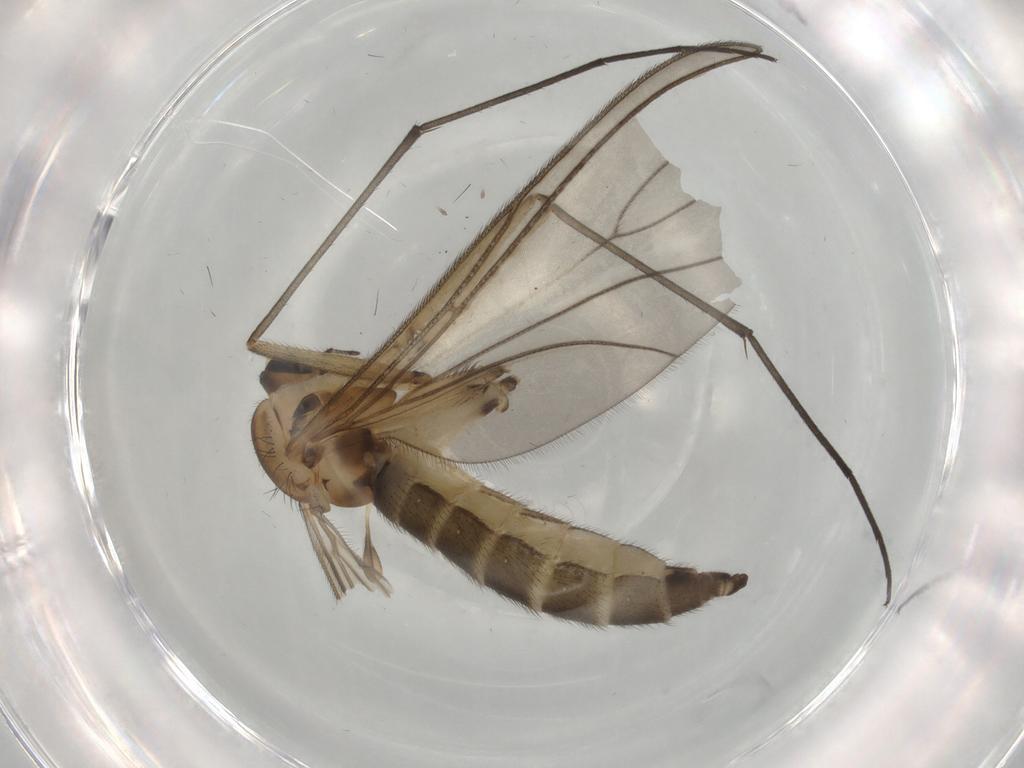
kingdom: Animalia
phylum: Arthropoda
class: Insecta
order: Diptera
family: Sciaridae
